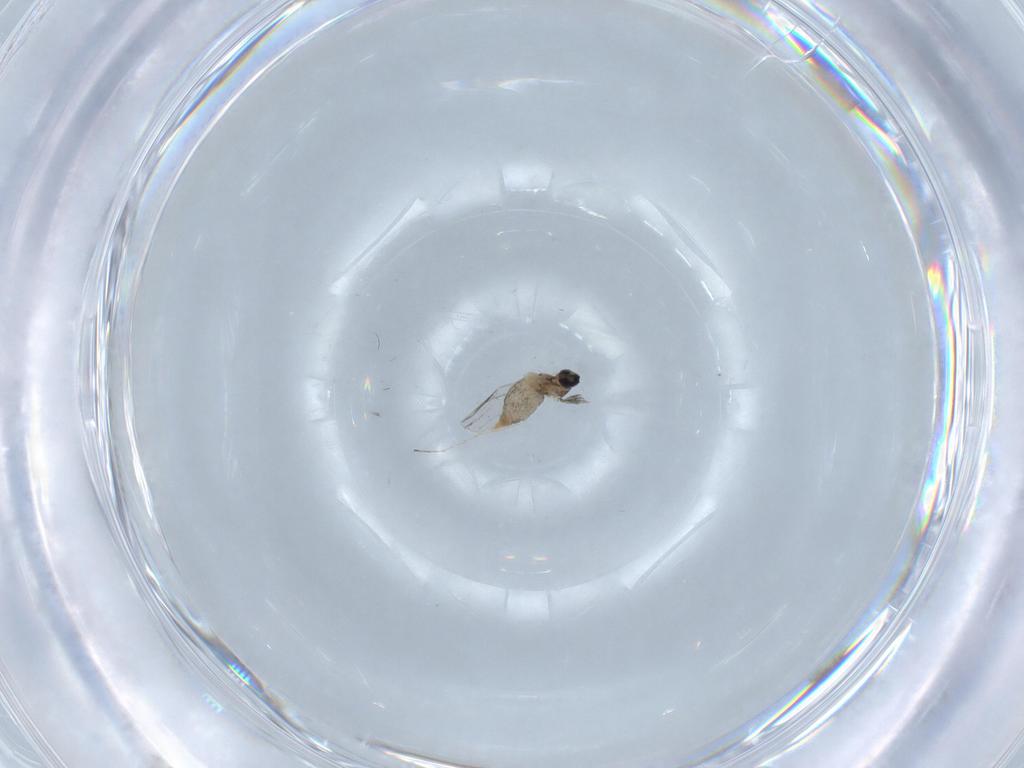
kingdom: Animalia
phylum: Arthropoda
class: Insecta
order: Diptera
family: Cecidomyiidae
